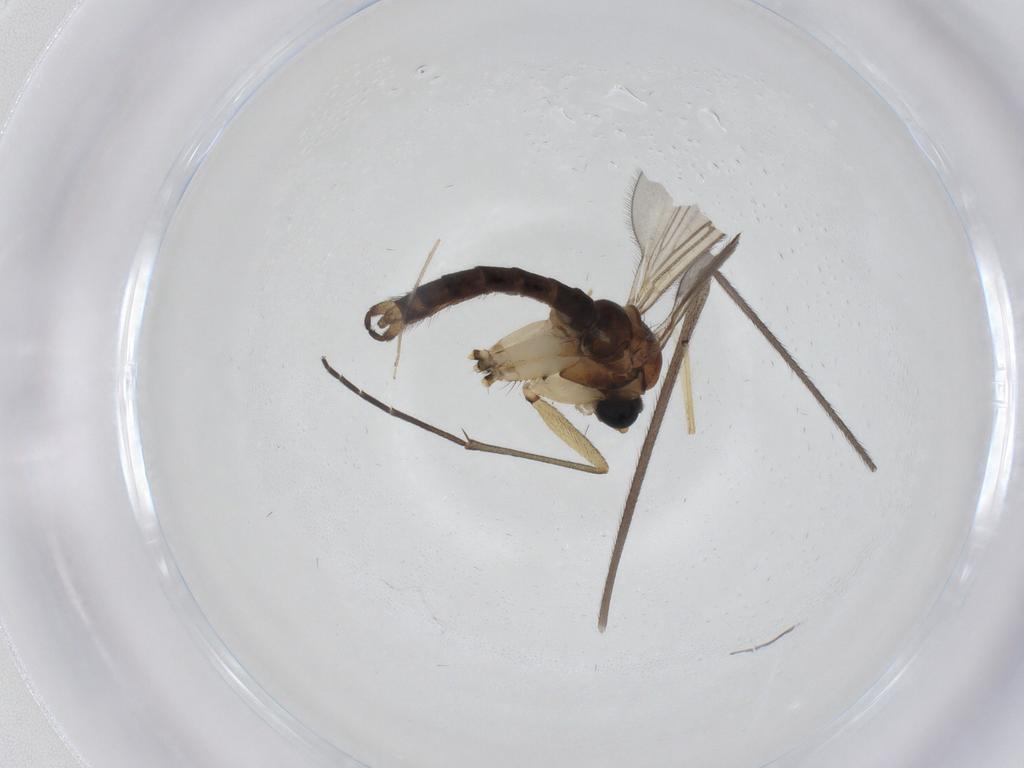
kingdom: Animalia
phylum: Arthropoda
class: Insecta
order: Diptera
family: Sciaridae
